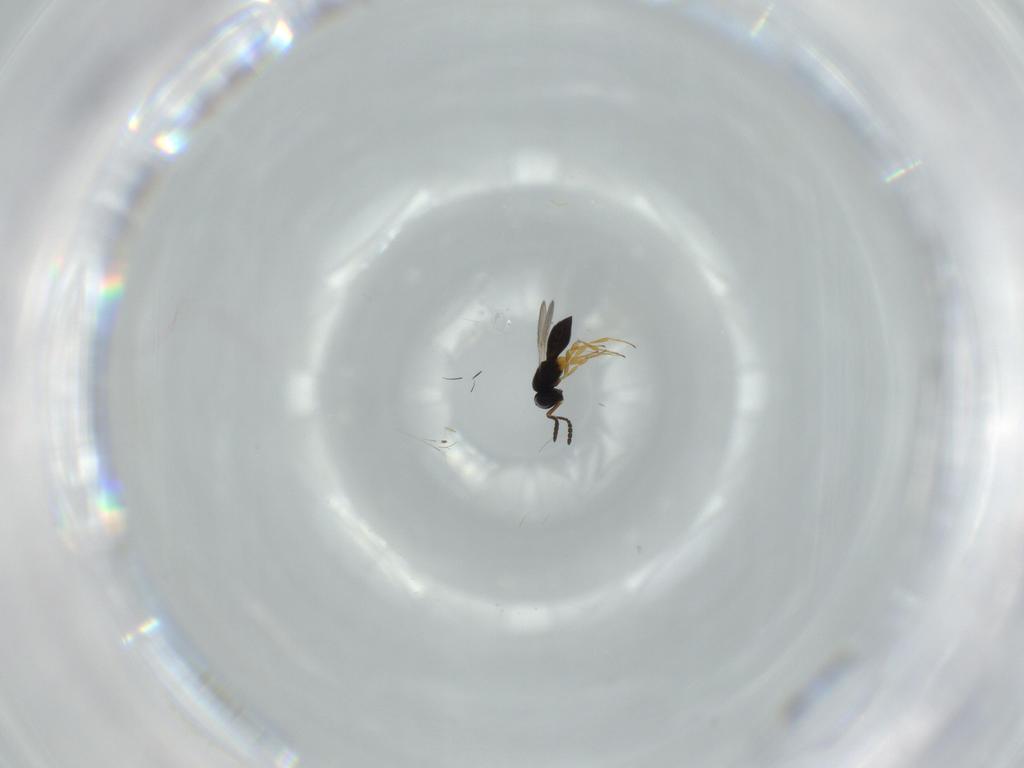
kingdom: Animalia
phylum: Arthropoda
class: Insecta
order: Hymenoptera
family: Scelionidae
